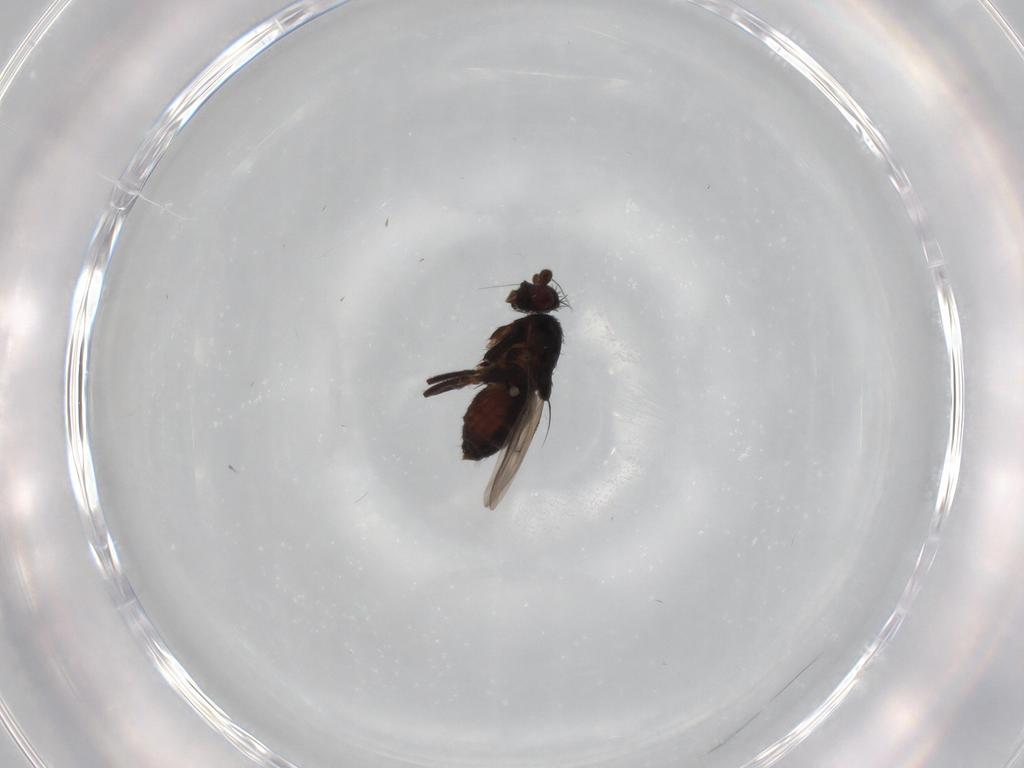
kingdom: Animalia
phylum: Arthropoda
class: Insecta
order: Diptera
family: Sphaeroceridae
